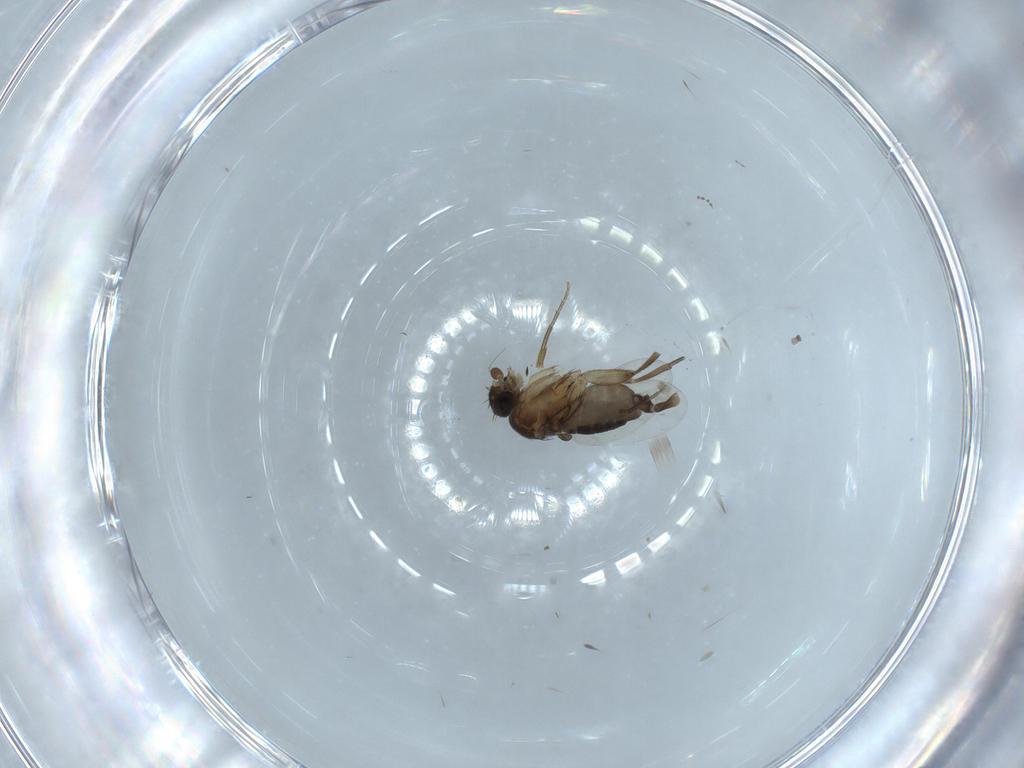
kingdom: Animalia
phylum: Arthropoda
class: Insecta
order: Diptera
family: Phoridae
